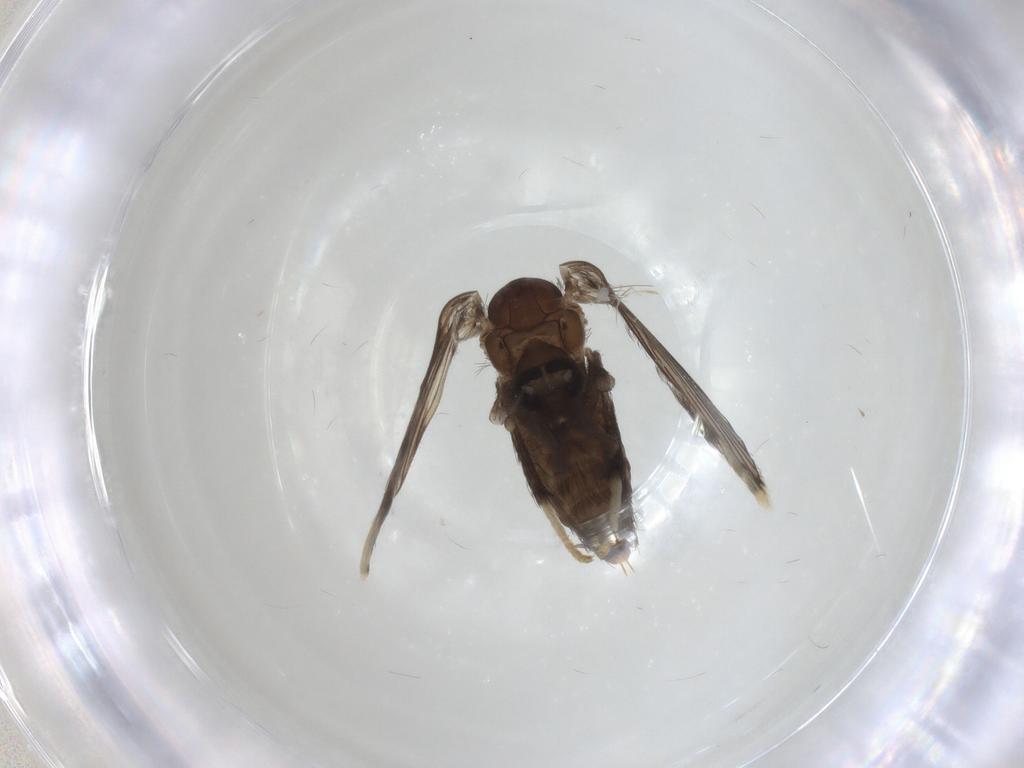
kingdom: Animalia
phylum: Arthropoda
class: Insecta
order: Diptera
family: Psychodidae
